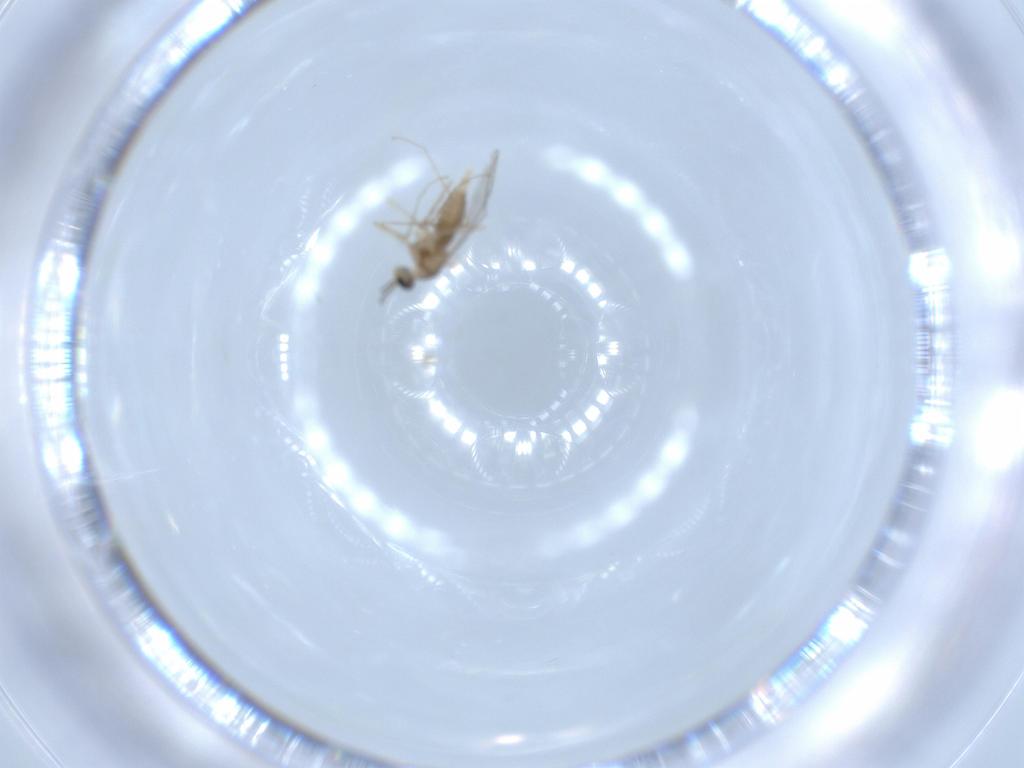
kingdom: Animalia
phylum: Arthropoda
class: Insecta
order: Diptera
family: Cecidomyiidae
